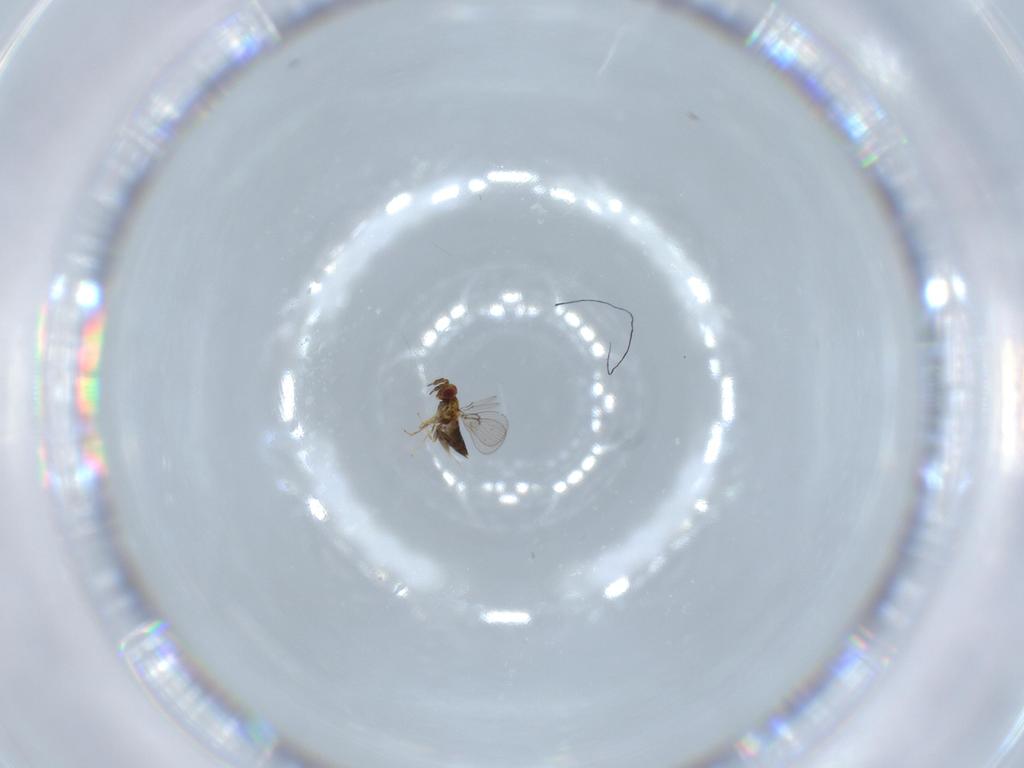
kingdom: Animalia
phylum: Arthropoda
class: Insecta
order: Hymenoptera
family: Trichogrammatidae
